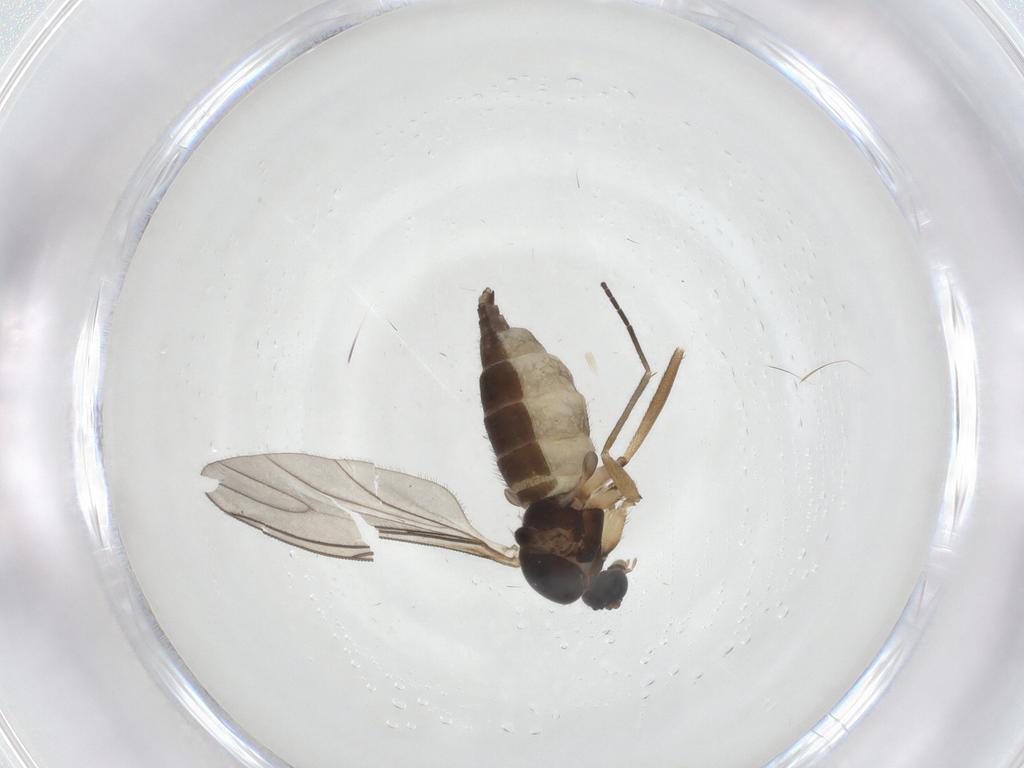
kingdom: Animalia
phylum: Arthropoda
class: Insecta
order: Diptera
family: Sciaridae
